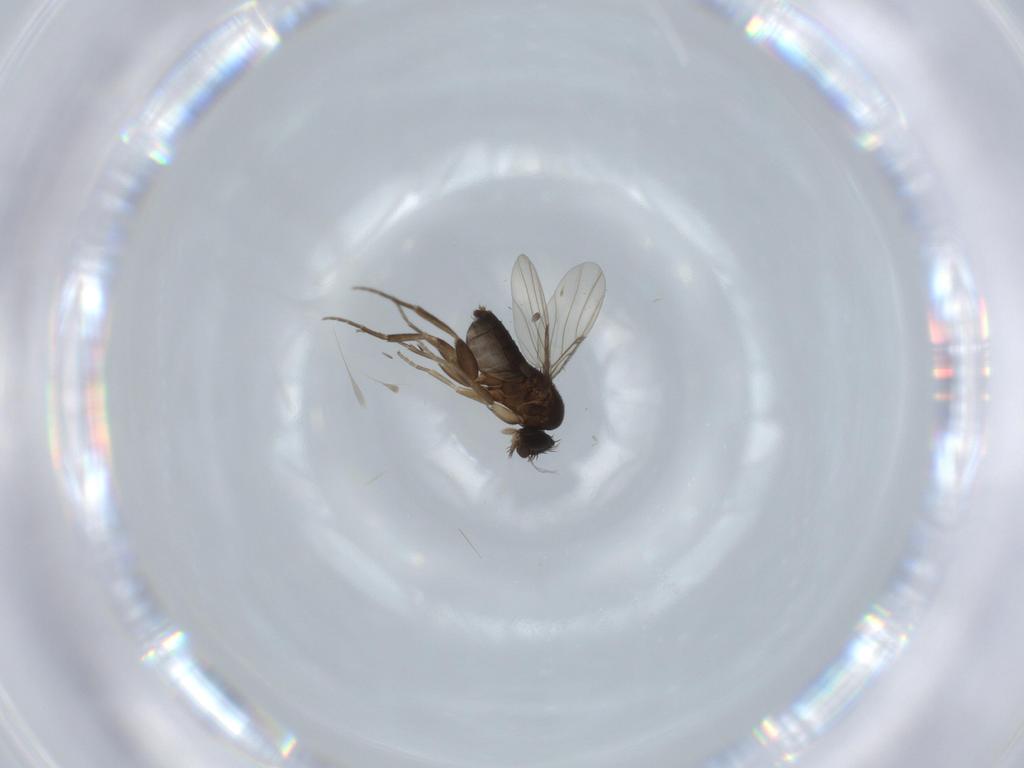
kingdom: Animalia
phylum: Arthropoda
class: Insecta
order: Diptera
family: Phoridae
